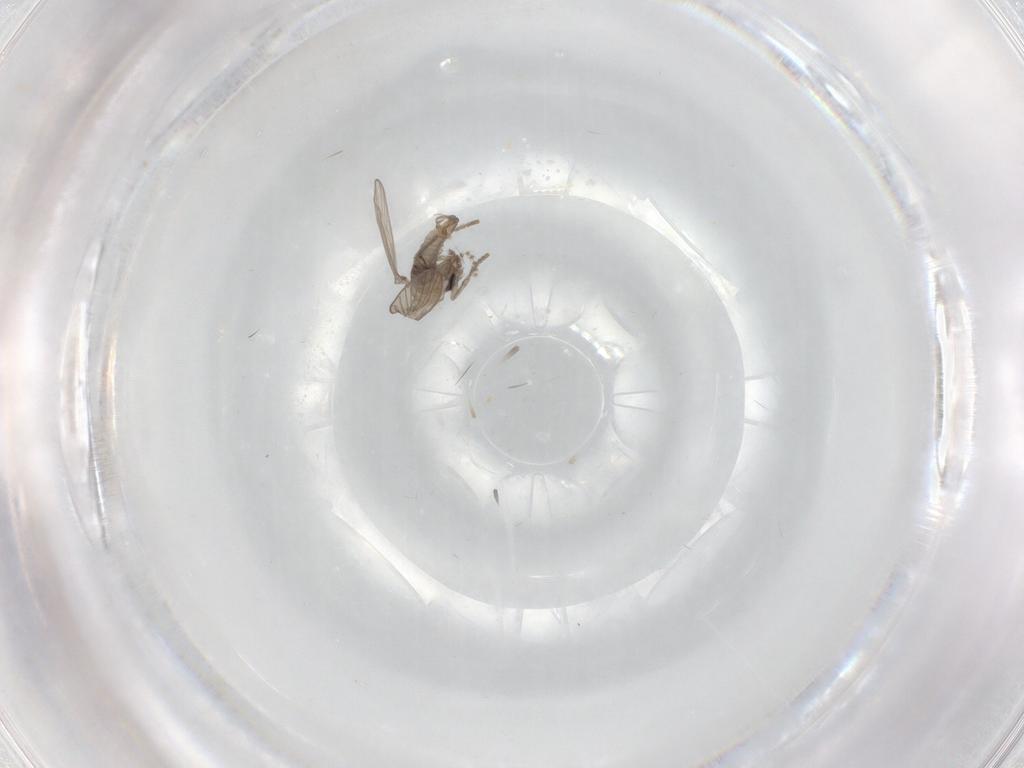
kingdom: Animalia
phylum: Arthropoda
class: Insecta
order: Diptera
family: Psychodidae
